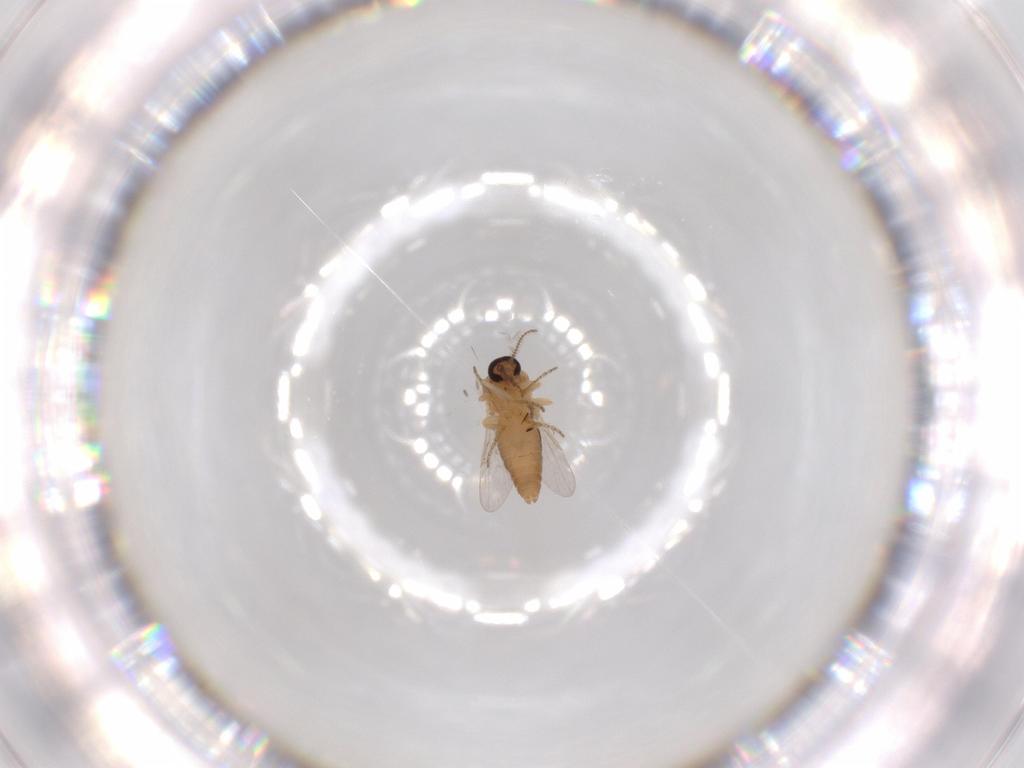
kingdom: Animalia
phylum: Arthropoda
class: Insecta
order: Diptera
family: Ceratopogonidae
